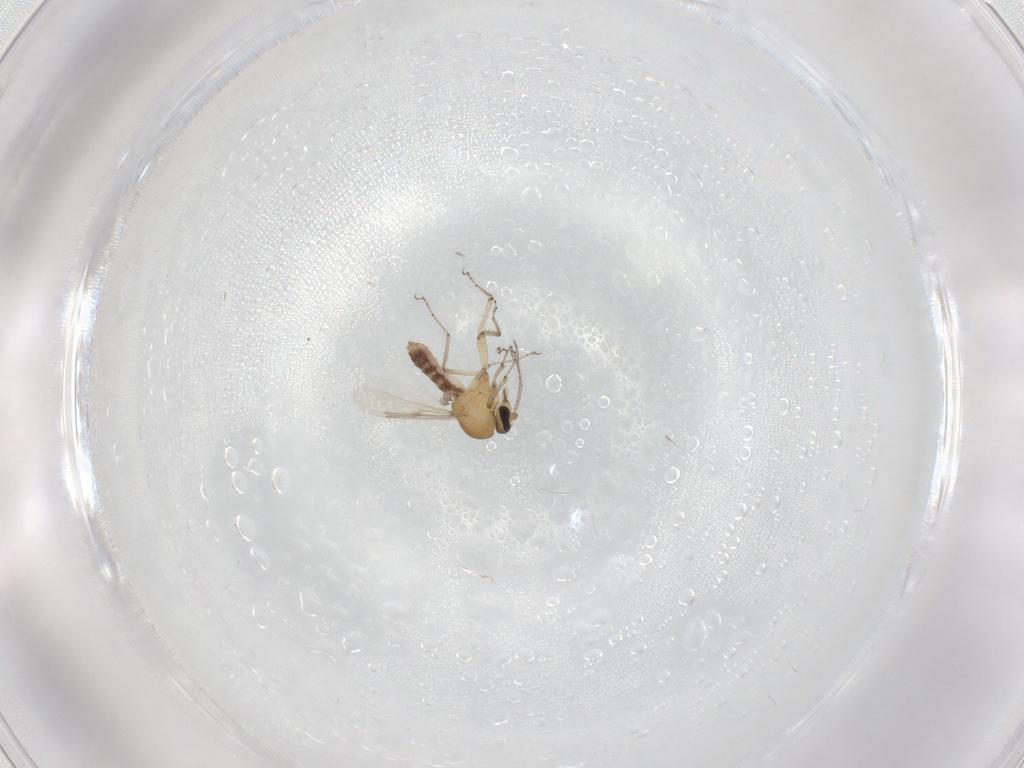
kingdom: Animalia
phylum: Arthropoda
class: Insecta
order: Diptera
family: Ceratopogonidae
